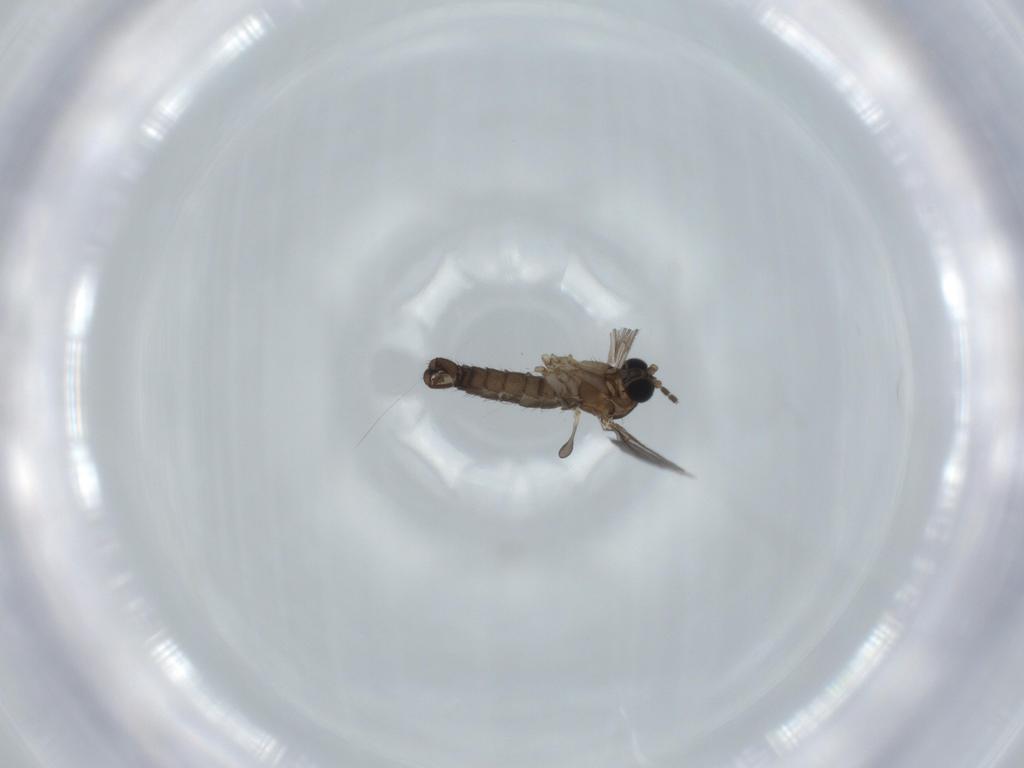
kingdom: Animalia
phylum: Arthropoda
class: Insecta
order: Diptera
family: Sciaridae
